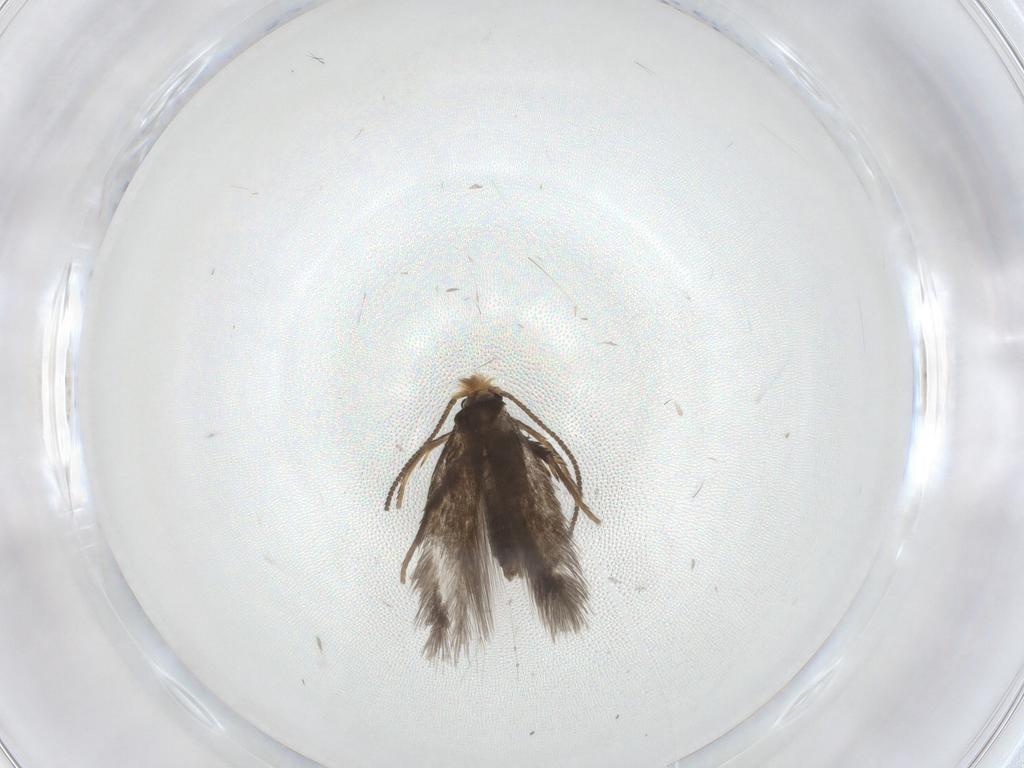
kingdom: Animalia
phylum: Arthropoda
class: Insecta
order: Lepidoptera
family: Nepticulidae
